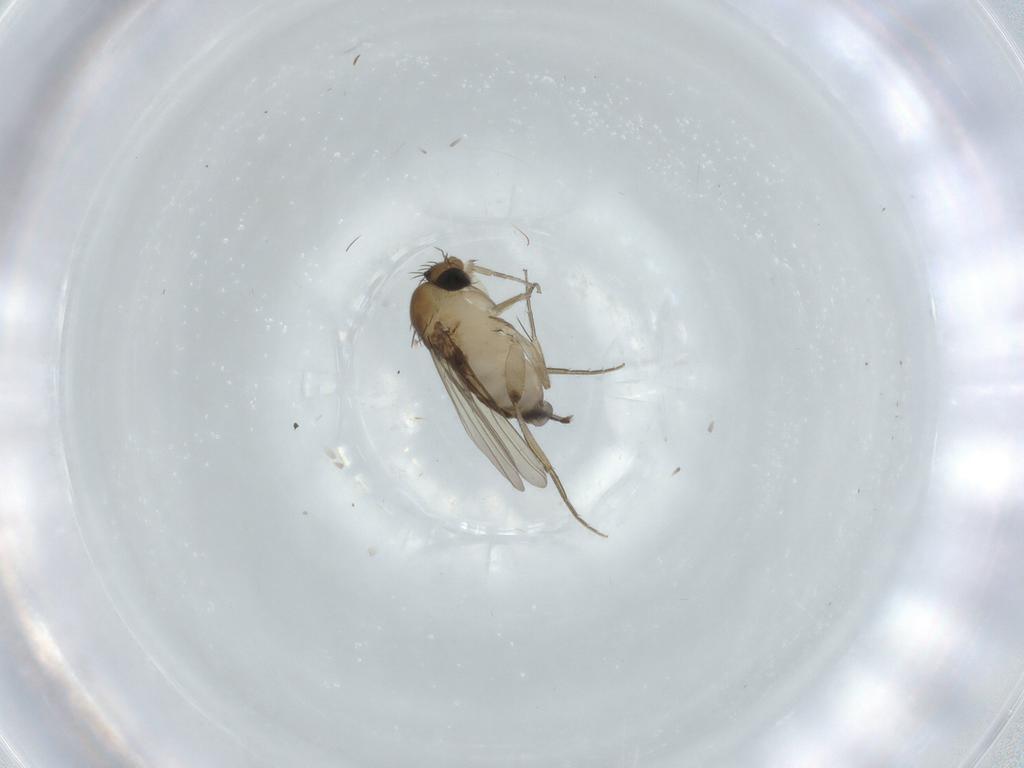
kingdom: Animalia
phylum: Arthropoda
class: Insecta
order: Diptera
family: Phoridae
